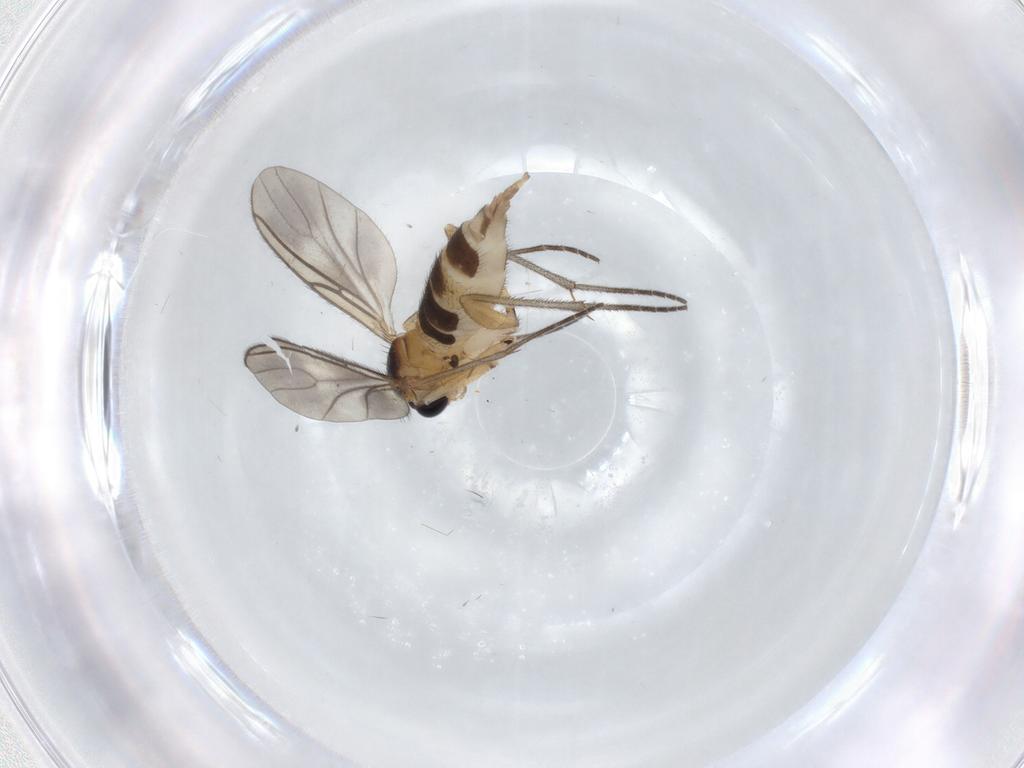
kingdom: Animalia
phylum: Arthropoda
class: Insecta
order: Diptera
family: Sciaridae
